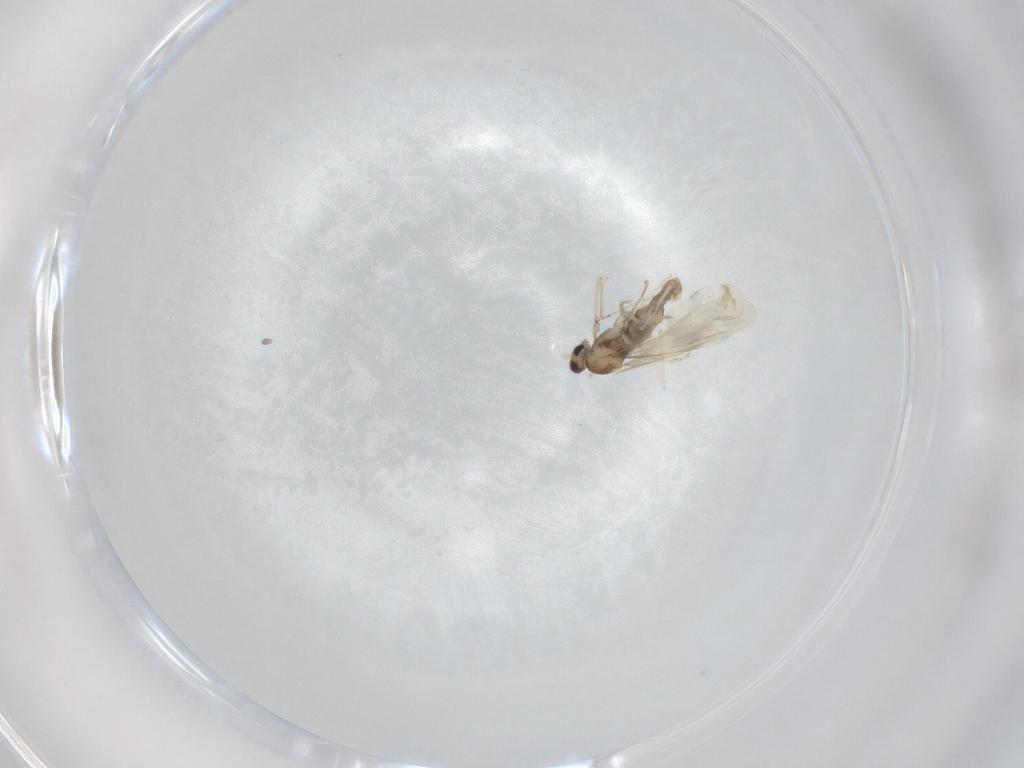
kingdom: Animalia
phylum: Arthropoda
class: Insecta
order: Diptera
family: Cecidomyiidae
